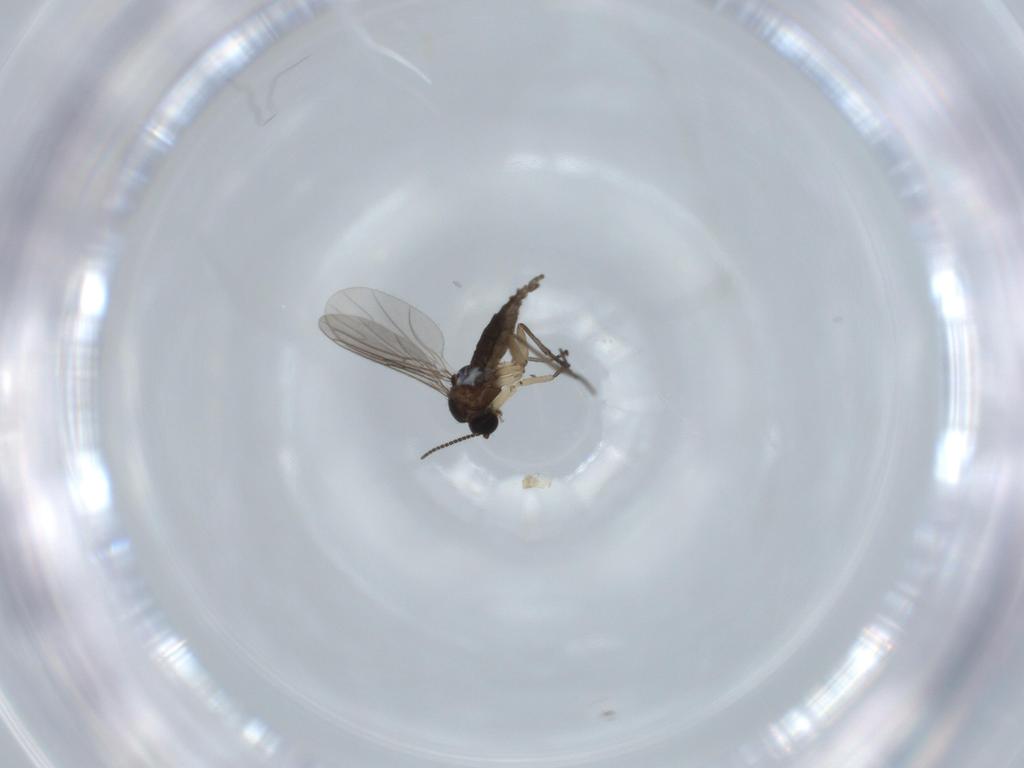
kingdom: Animalia
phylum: Arthropoda
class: Insecta
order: Diptera
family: Sciaridae
